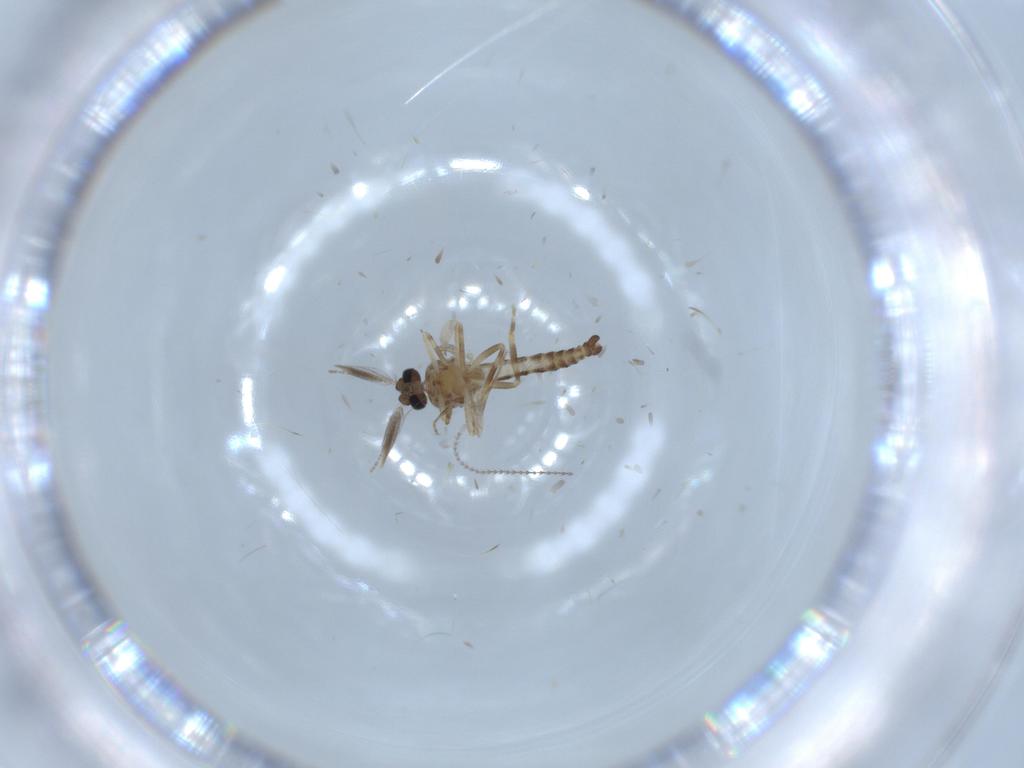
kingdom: Animalia
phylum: Arthropoda
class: Insecta
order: Diptera
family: Ceratopogonidae
